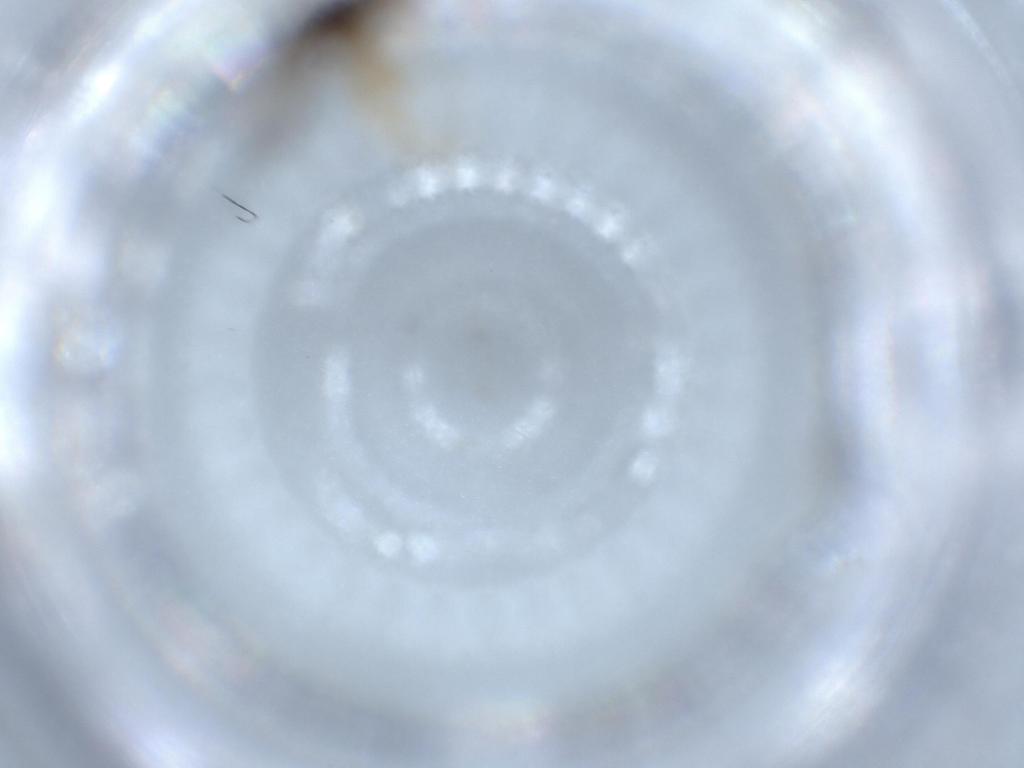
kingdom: Animalia
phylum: Arthropoda
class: Insecta
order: Diptera
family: Chloropidae
